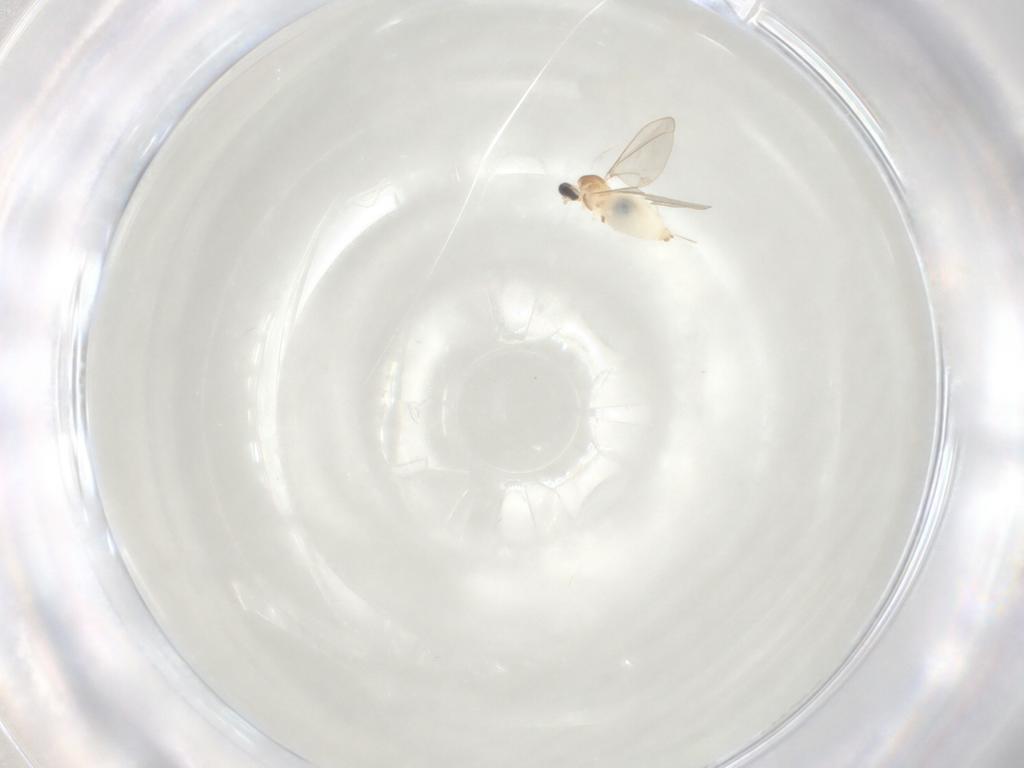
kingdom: Animalia
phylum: Arthropoda
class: Insecta
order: Diptera
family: Cecidomyiidae
